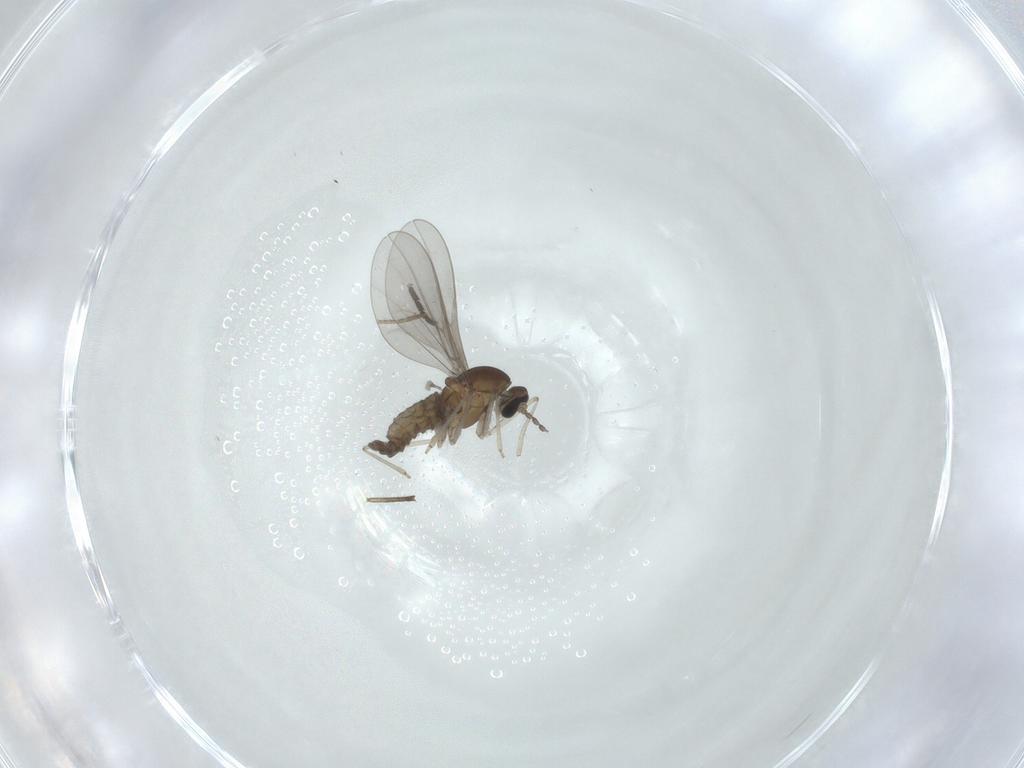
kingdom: Animalia
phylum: Arthropoda
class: Insecta
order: Diptera
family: Cecidomyiidae
